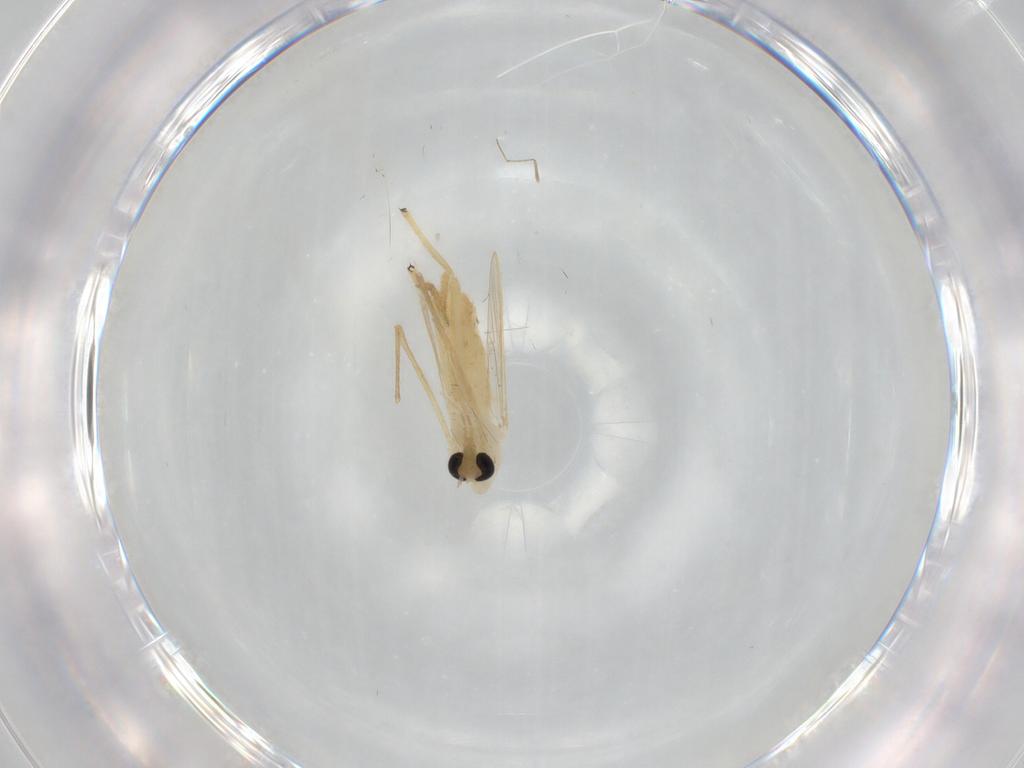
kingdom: Animalia
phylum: Arthropoda
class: Insecta
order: Diptera
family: Chironomidae
